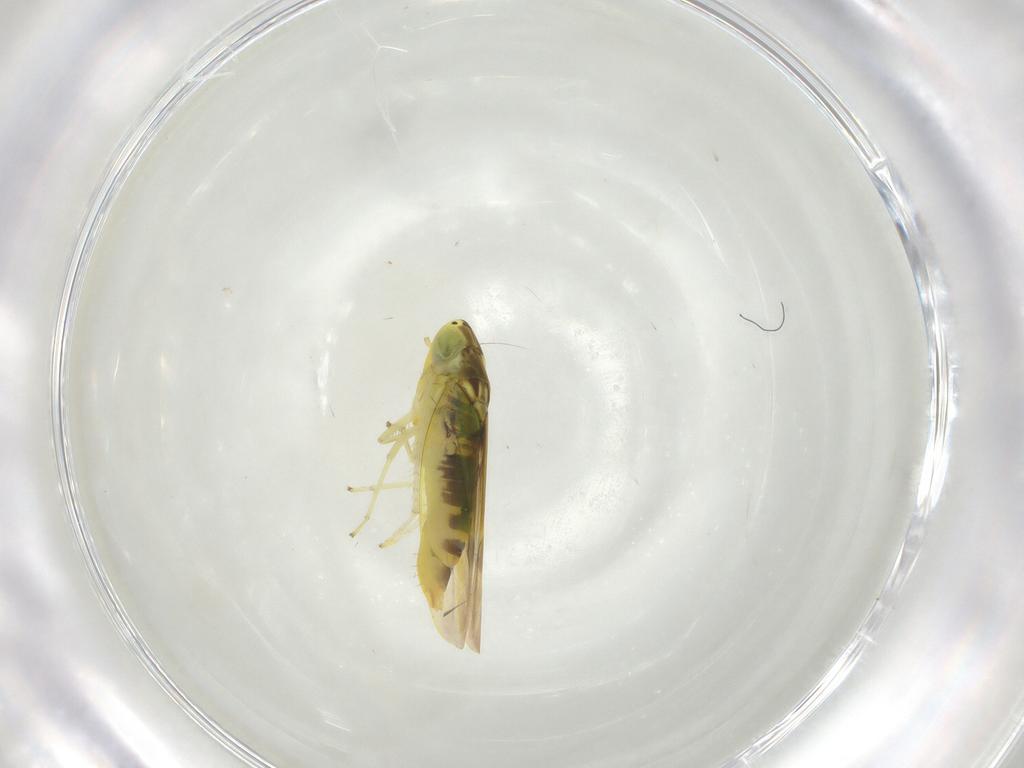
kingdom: Animalia
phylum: Arthropoda
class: Insecta
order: Hemiptera
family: Cicadellidae
